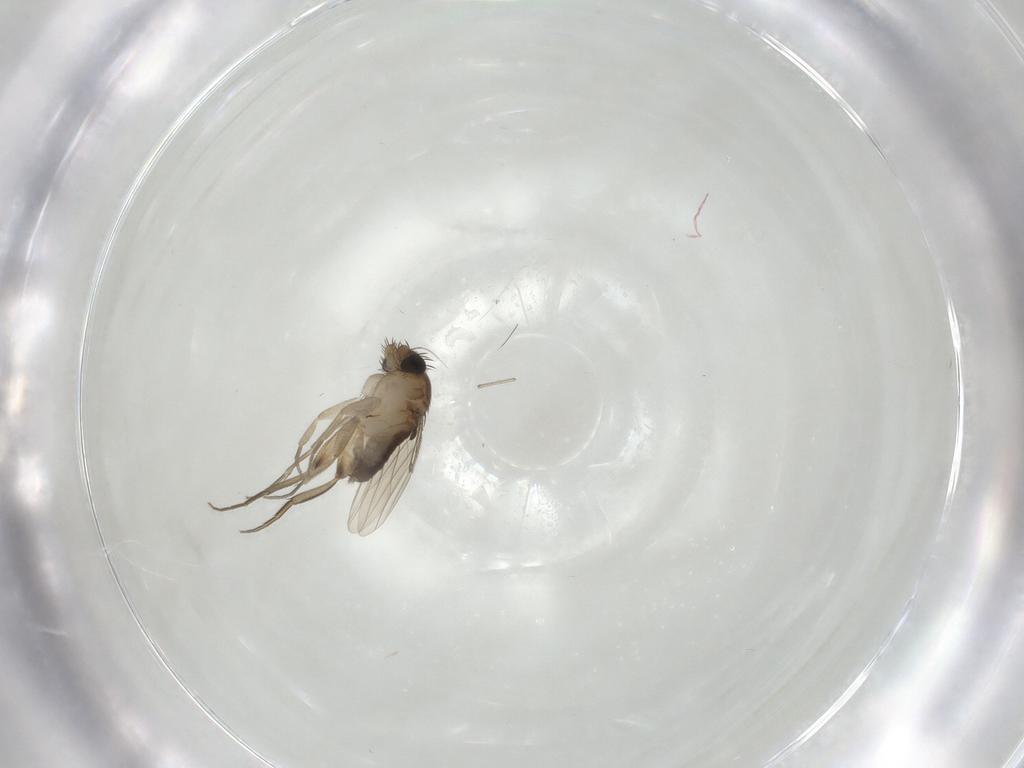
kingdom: Animalia
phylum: Arthropoda
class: Insecta
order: Diptera
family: Phoridae
